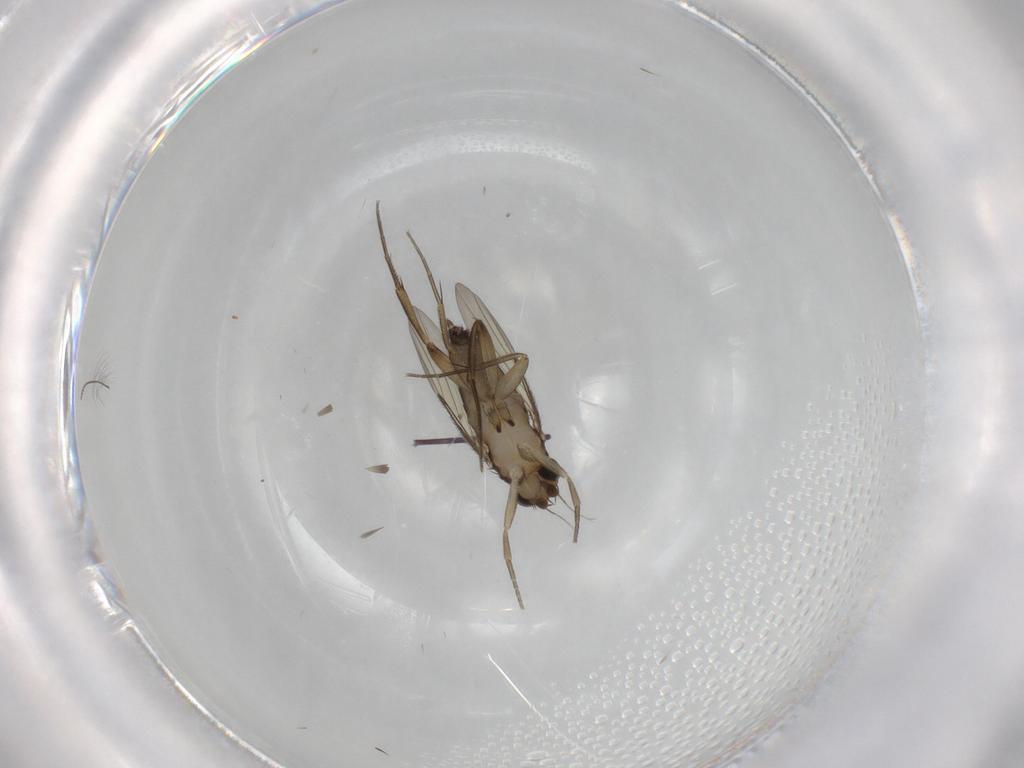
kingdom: Animalia
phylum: Arthropoda
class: Insecta
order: Diptera
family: Phoridae
